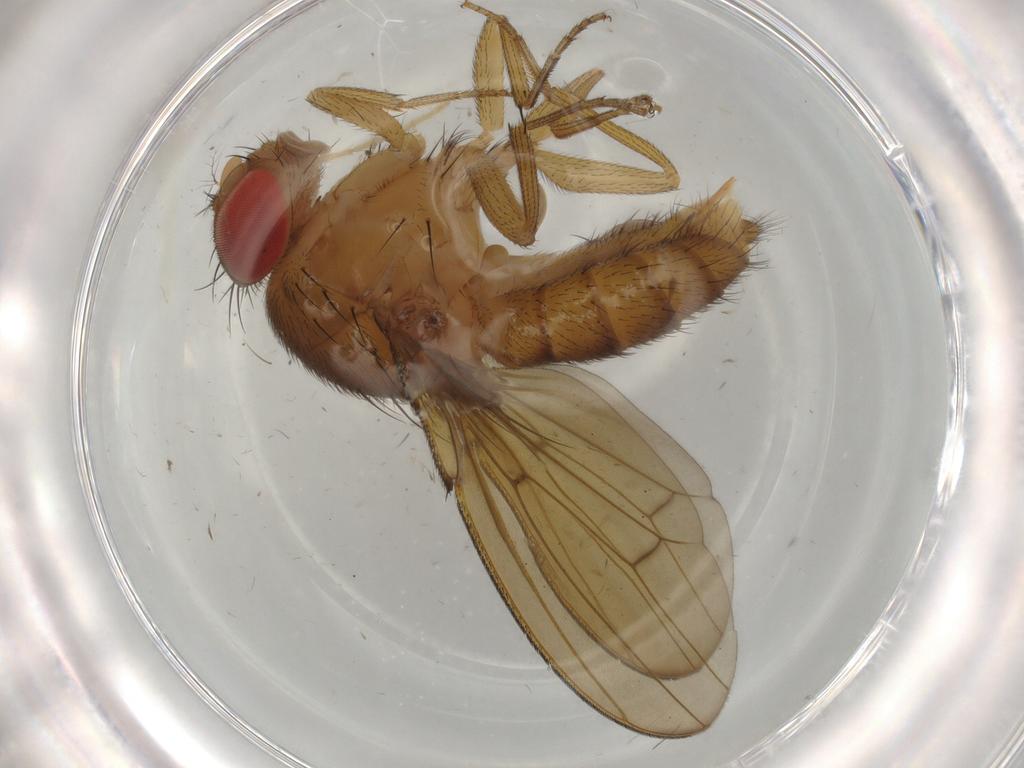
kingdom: Animalia
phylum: Arthropoda
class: Insecta
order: Diptera
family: Drosophilidae
